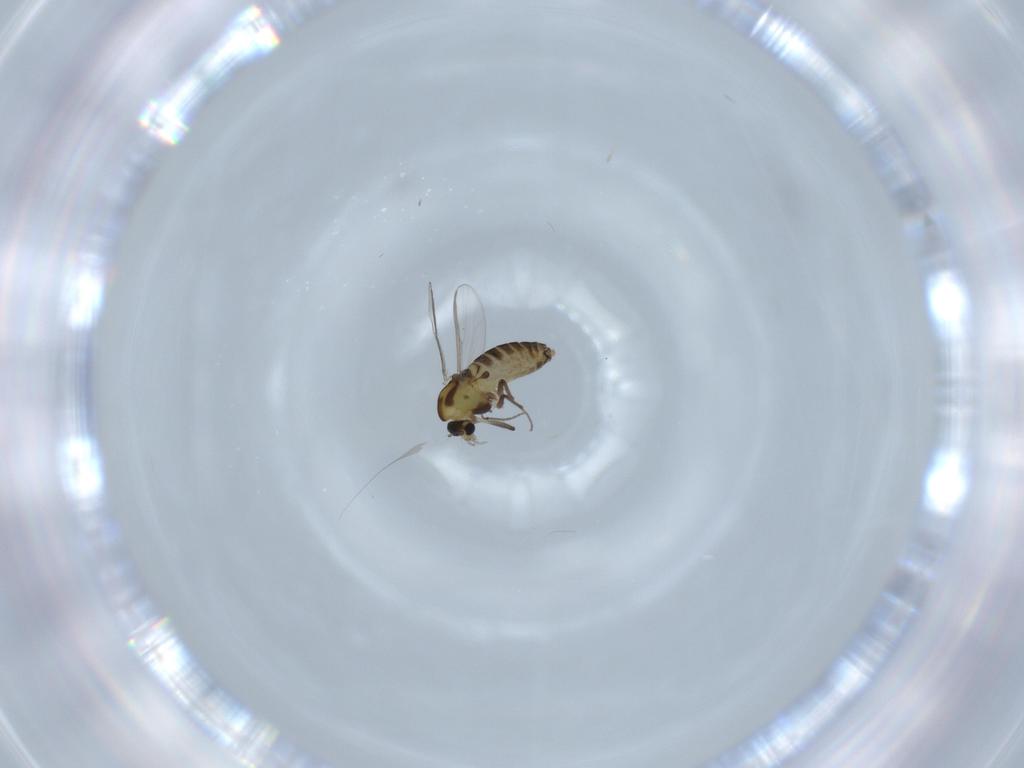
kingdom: Animalia
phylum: Arthropoda
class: Insecta
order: Diptera
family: Chironomidae
